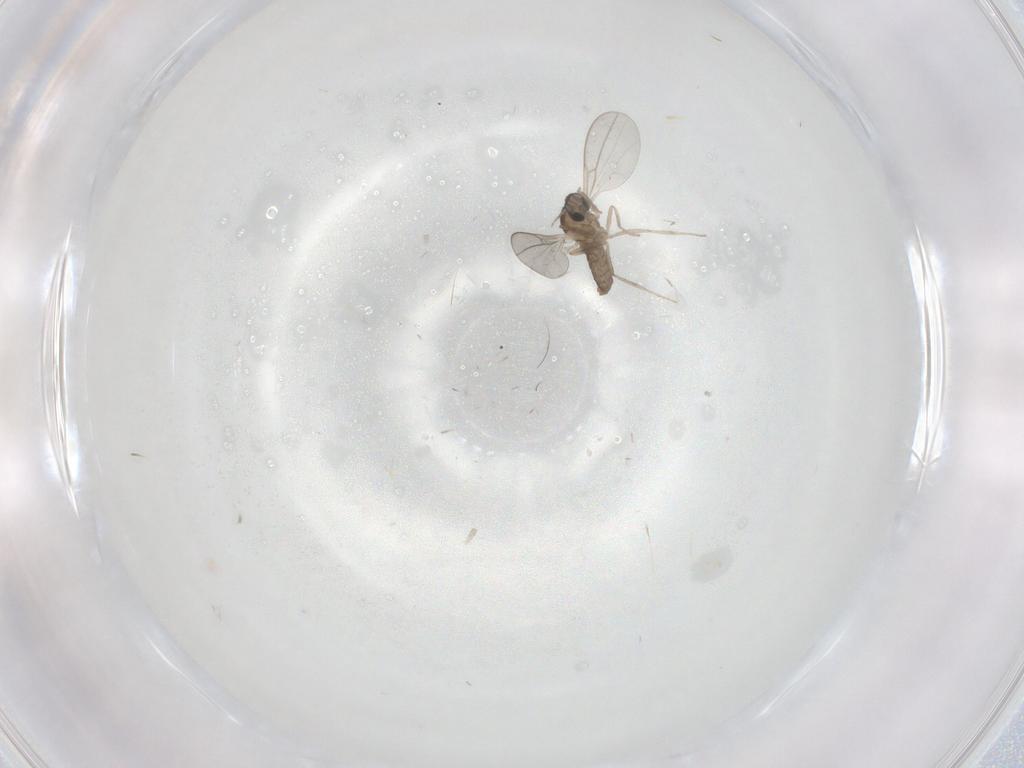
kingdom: Animalia
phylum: Arthropoda
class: Insecta
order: Diptera
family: Cecidomyiidae
